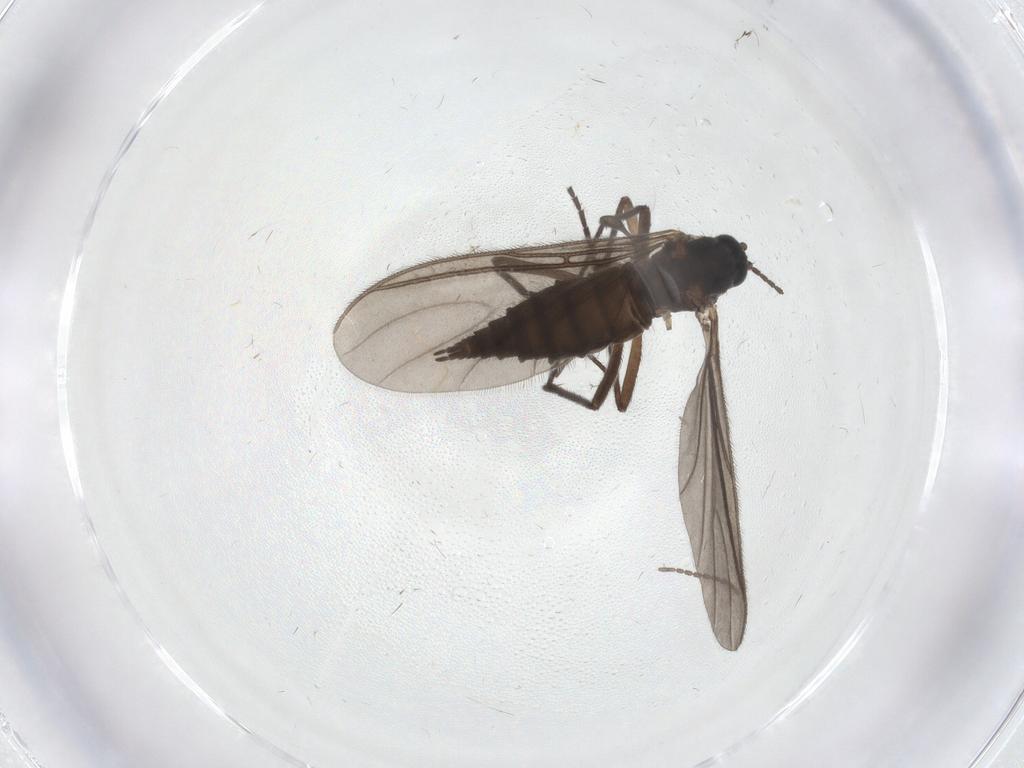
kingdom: Animalia
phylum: Arthropoda
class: Insecta
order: Diptera
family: Sciaridae
